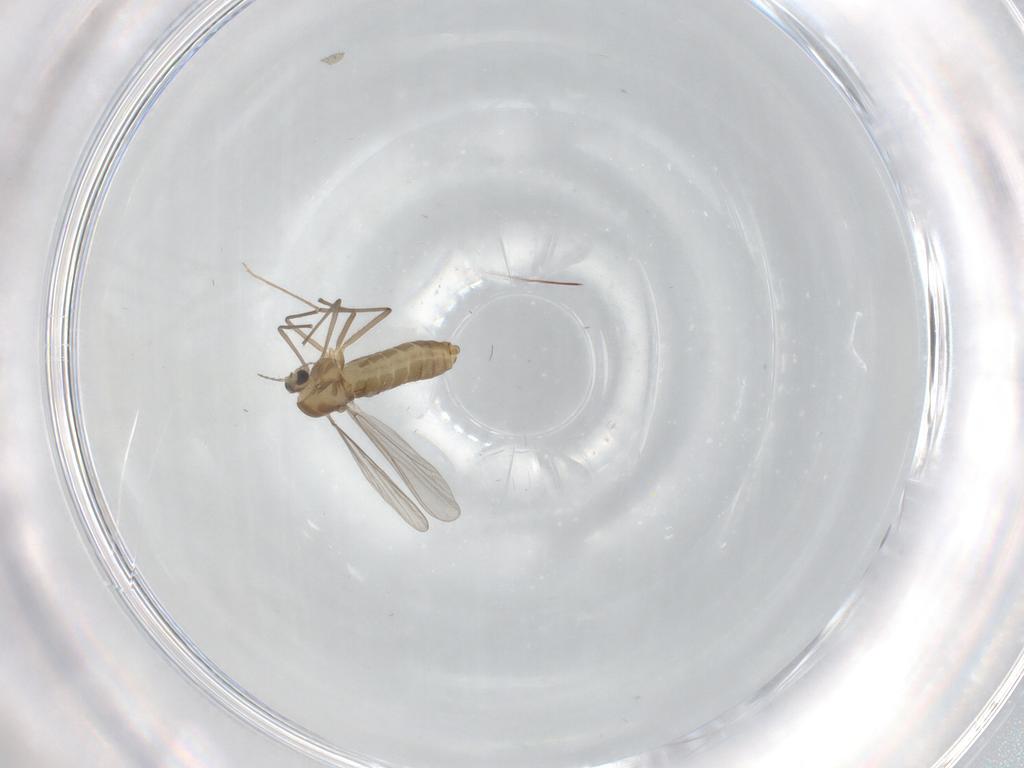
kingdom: Animalia
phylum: Arthropoda
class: Insecta
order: Diptera
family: Chironomidae
